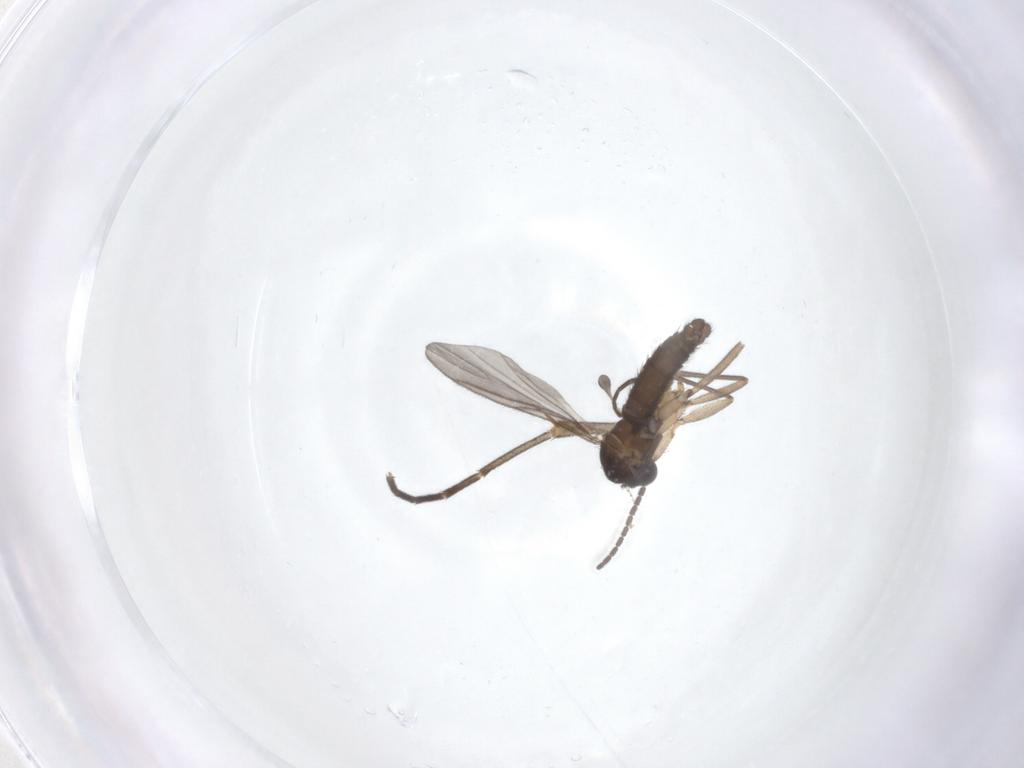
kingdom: Animalia
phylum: Arthropoda
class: Insecta
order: Diptera
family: Sciaridae
